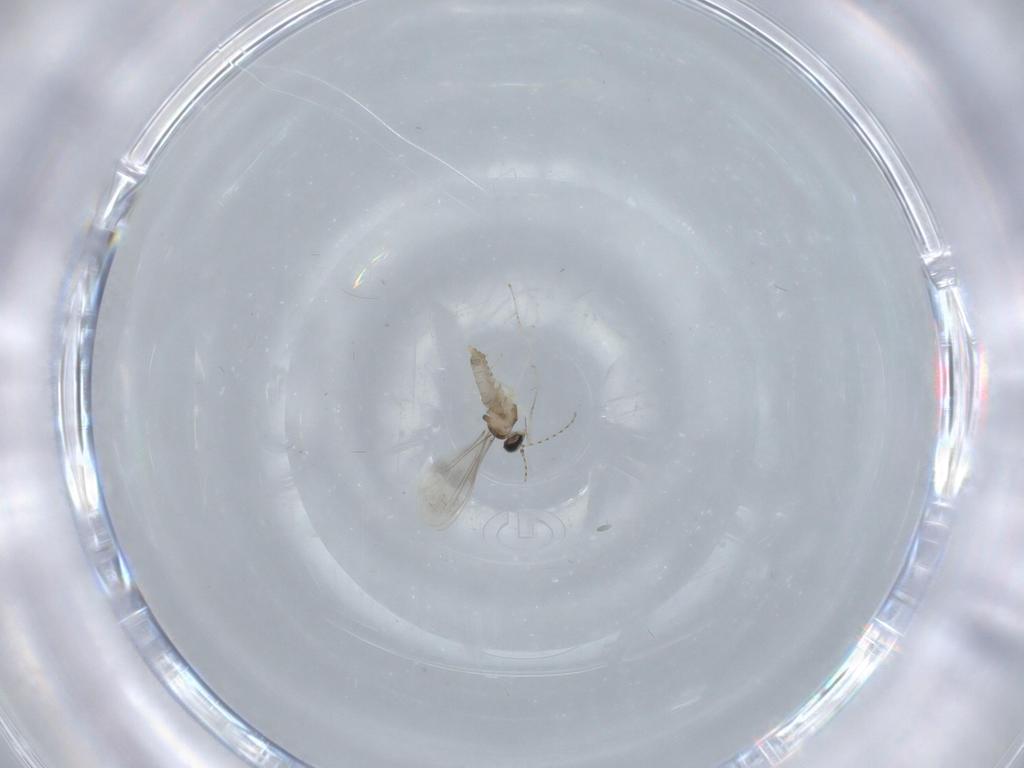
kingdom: Animalia
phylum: Arthropoda
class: Insecta
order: Diptera
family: Cecidomyiidae
